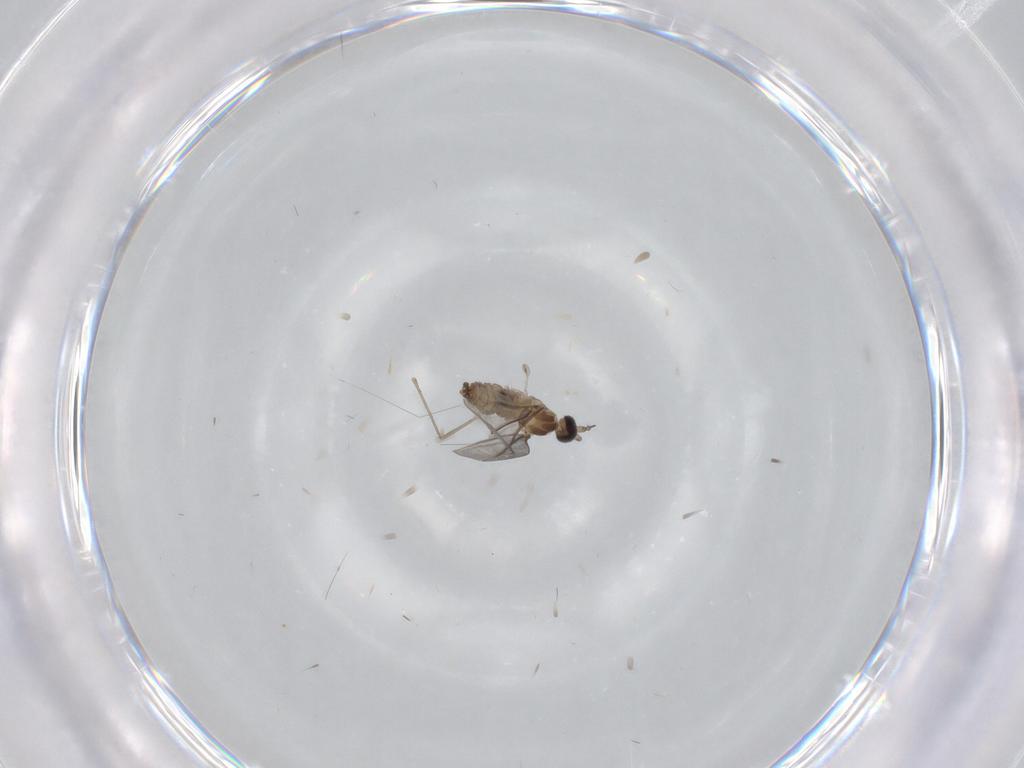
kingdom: Animalia
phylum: Arthropoda
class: Insecta
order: Diptera
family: Cecidomyiidae
